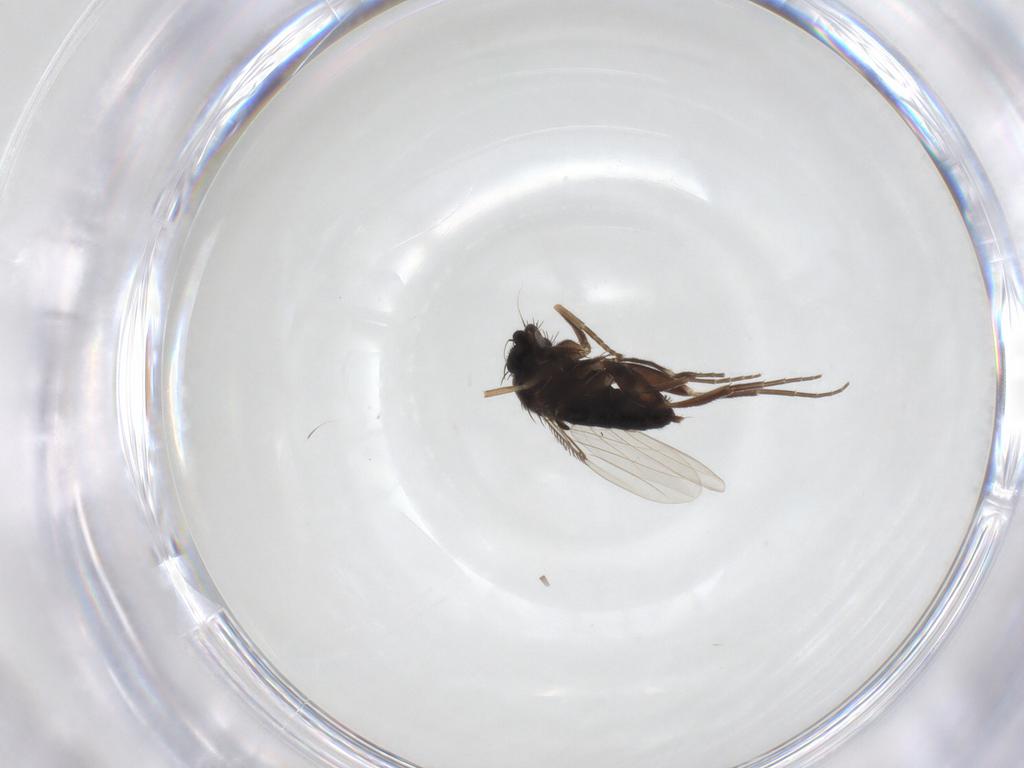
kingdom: Animalia
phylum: Arthropoda
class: Insecta
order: Diptera
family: Phoridae
